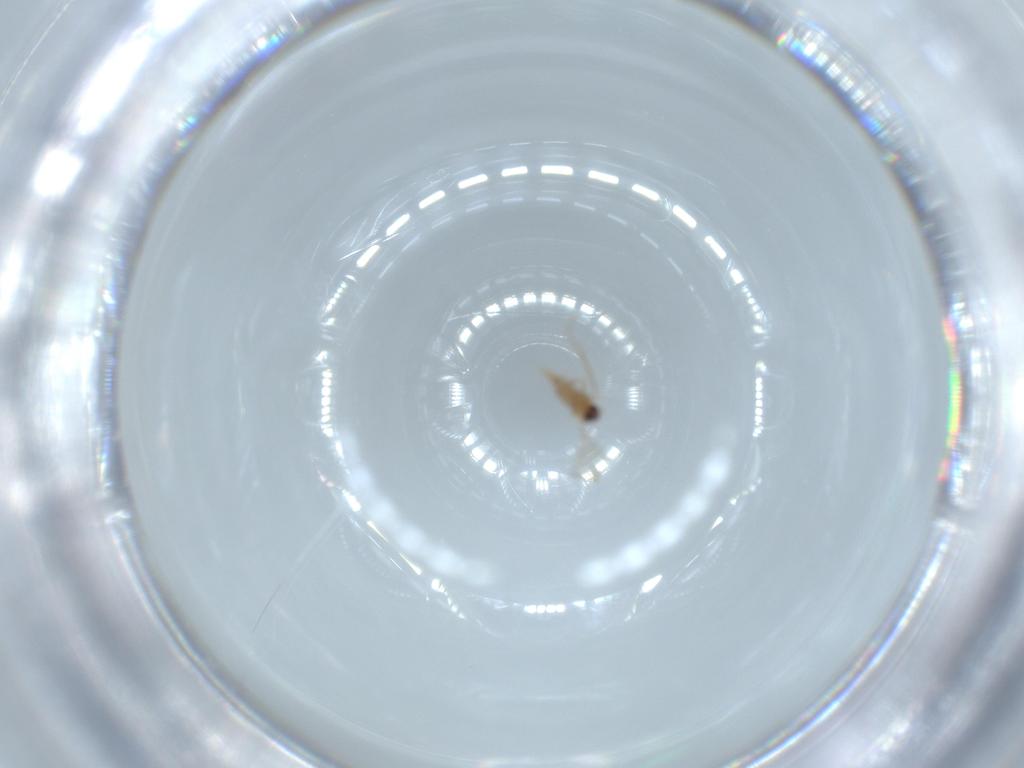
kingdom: Animalia
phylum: Arthropoda
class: Insecta
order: Diptera
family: Cecidomyiidae
